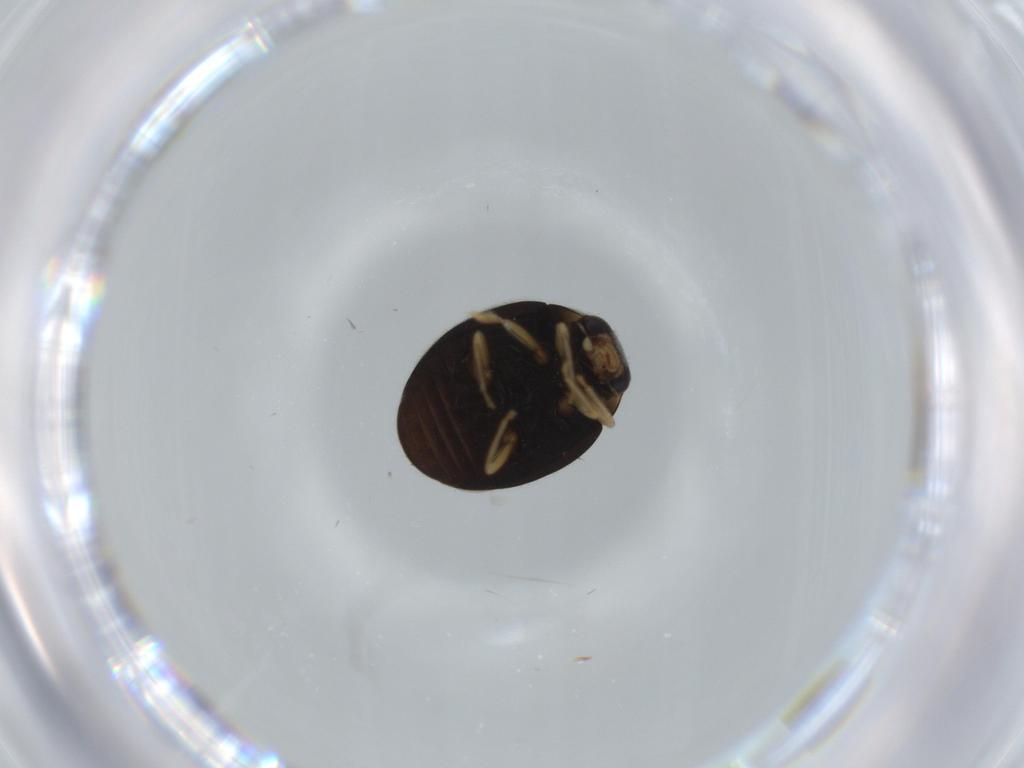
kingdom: Animalia
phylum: Arthropoda
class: Insecta
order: Coleoptera
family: Coccinellidae
